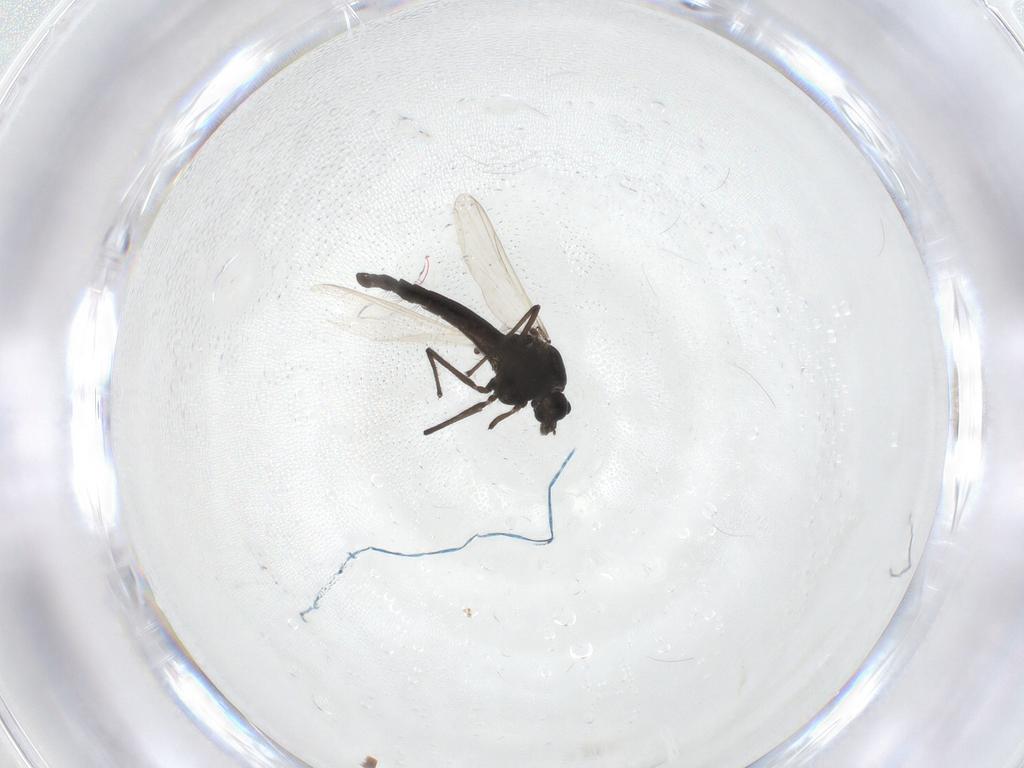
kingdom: Animalia
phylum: Arthropoda
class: Insecta
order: Diptera
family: Chironomidae
